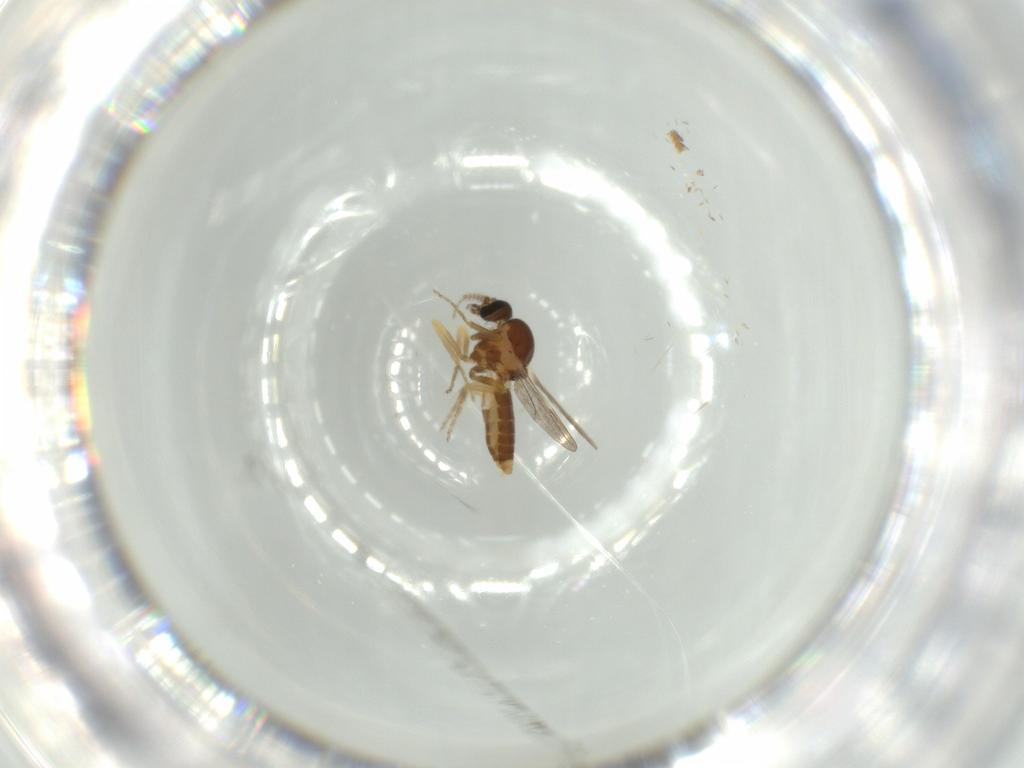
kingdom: Animalia
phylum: Arthropoda
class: Insecta
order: Diptera
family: Ceratopogonidae
